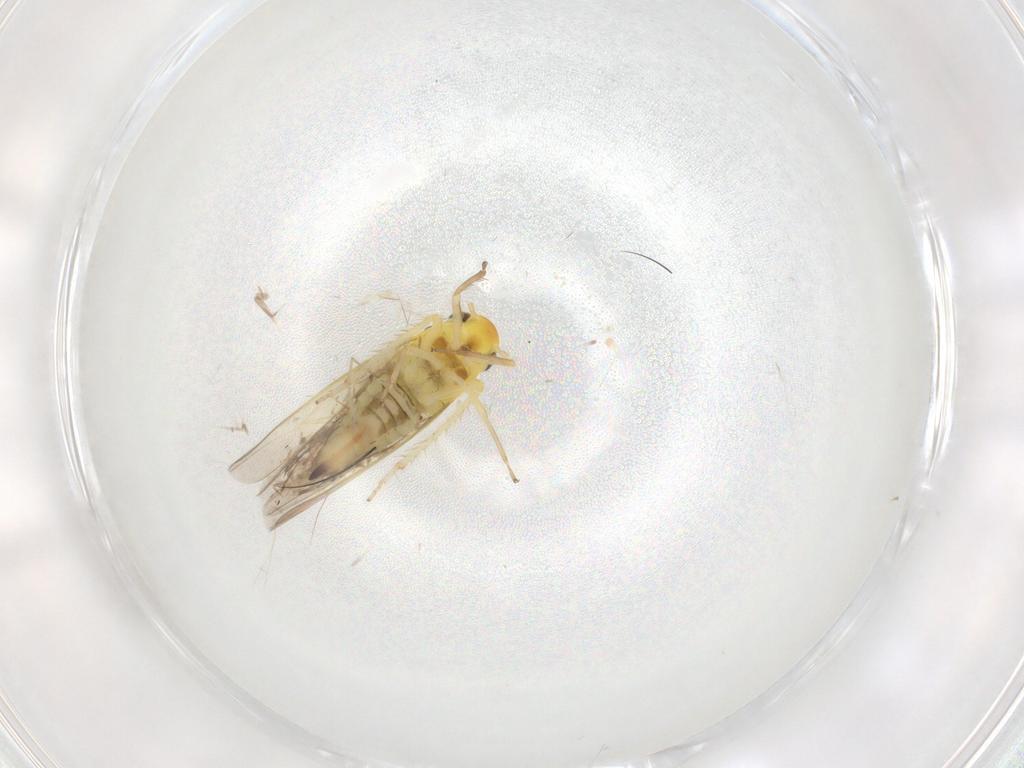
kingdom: Animalia
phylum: Arthropoda
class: Insecta
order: Hemiptera
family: Cicadellidae
